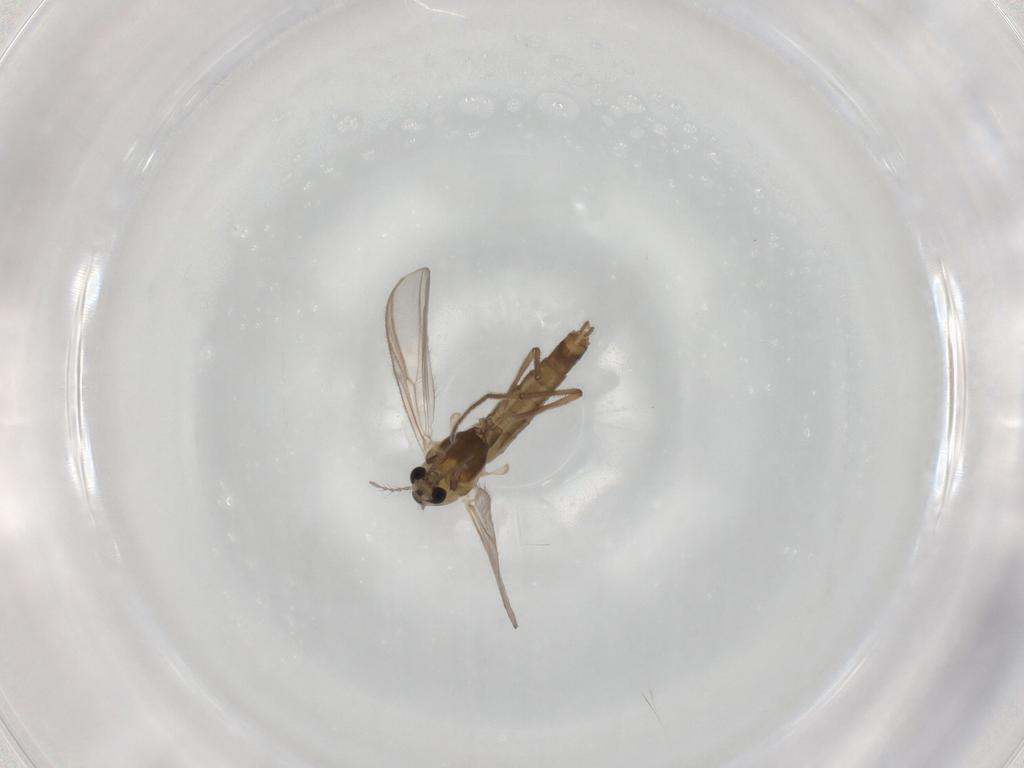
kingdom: Animalia
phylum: Arthropoda
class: Insecta
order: Diptera
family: Chironomidae
